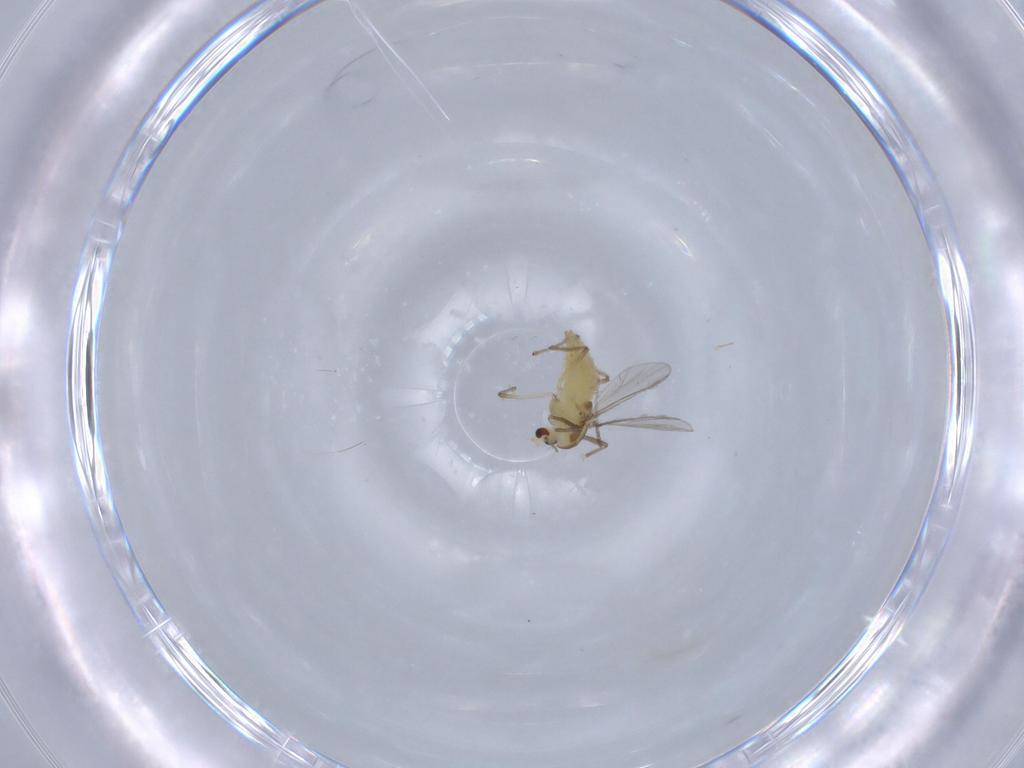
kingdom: Animalia
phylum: Arthropoda
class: Insecta
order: Diptera
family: Chironomidae
